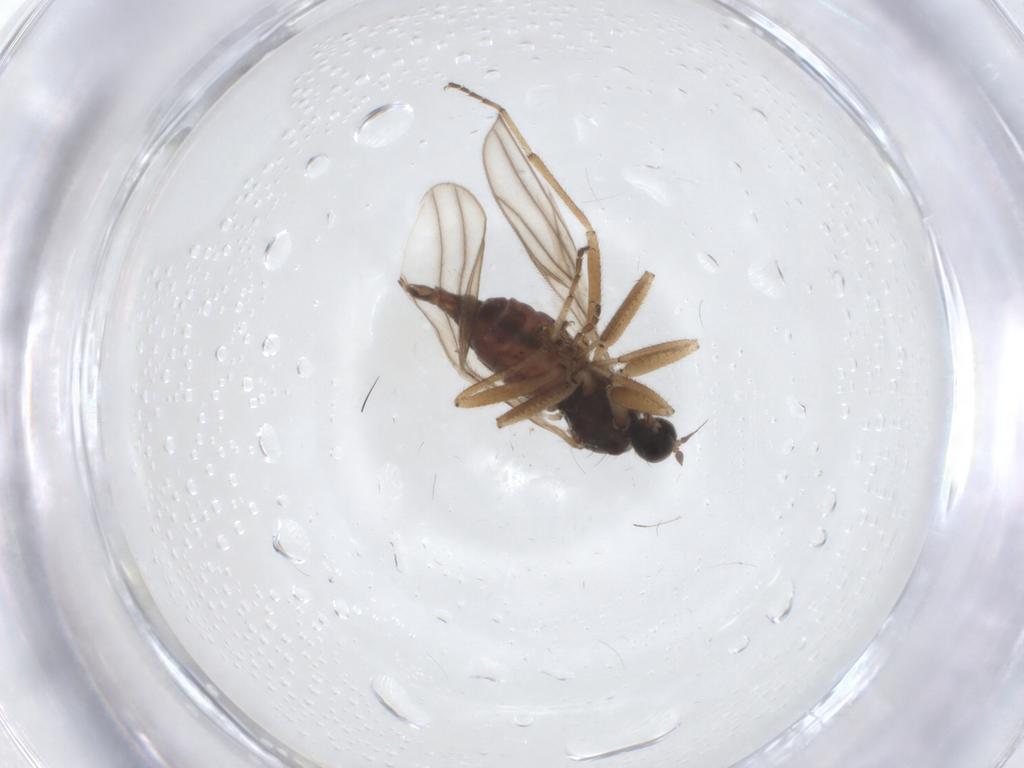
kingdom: Animalia
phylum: Arthropoda
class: Insecta
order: Diptera
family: Hybotidae
